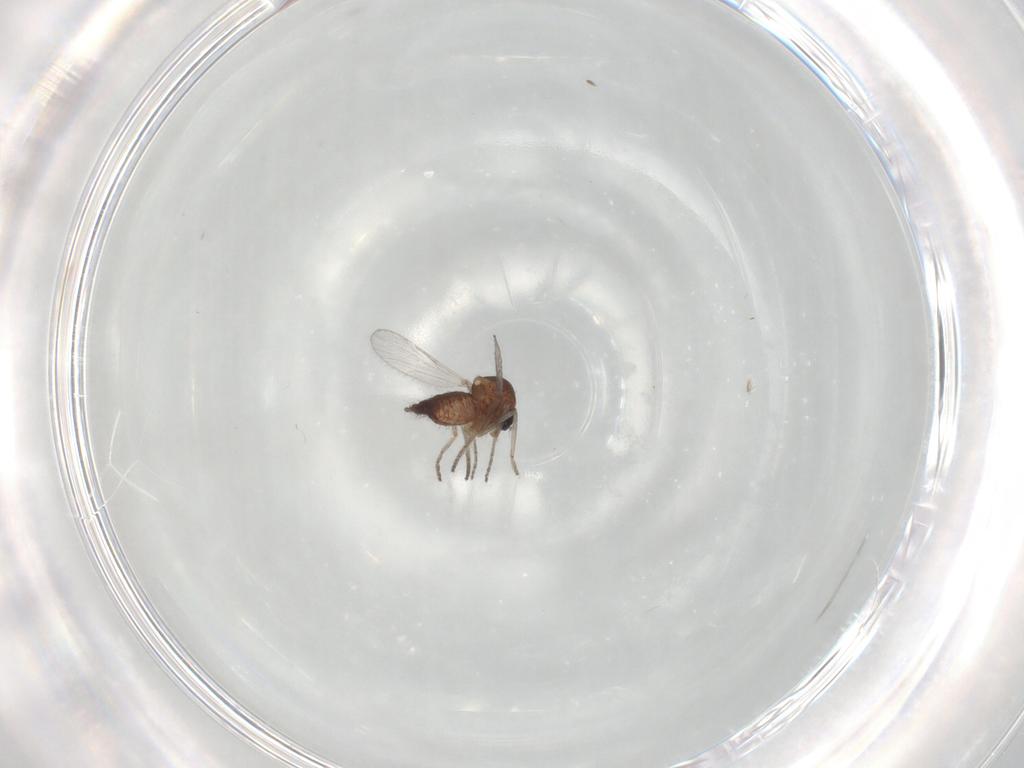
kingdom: Animalia
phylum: Arthropoda
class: Insecta
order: Diptera
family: Ceratopogonidae
